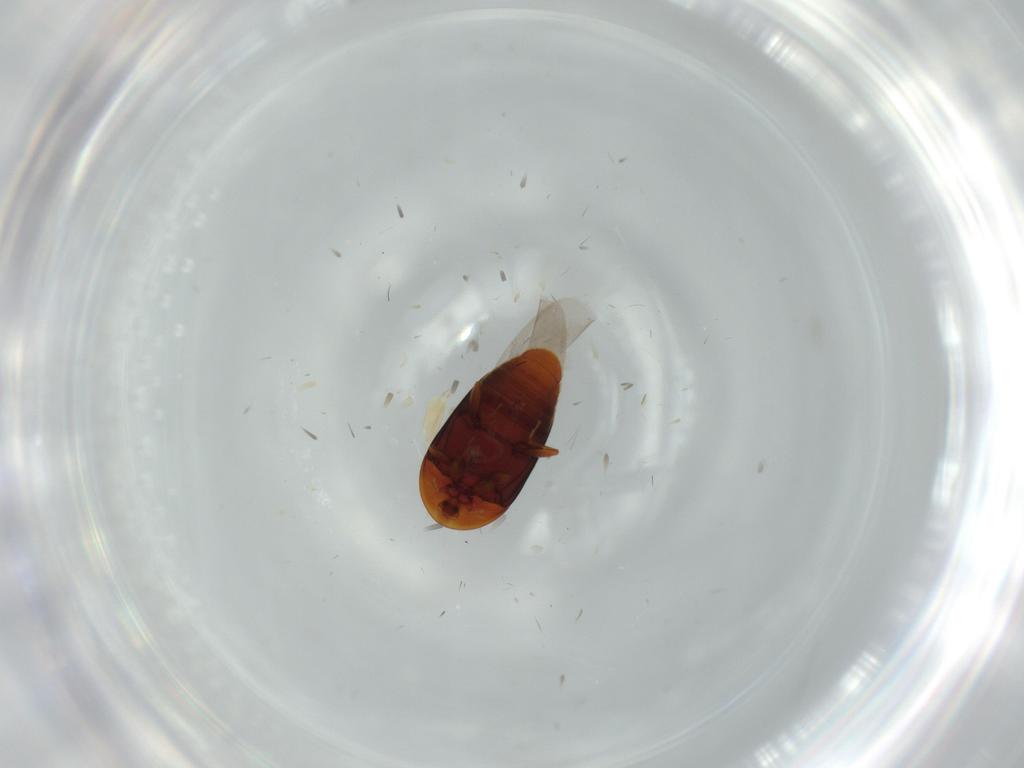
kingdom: Animalia
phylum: Arthropoda
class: Insecta
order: Coleoptera
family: Corylophidae
